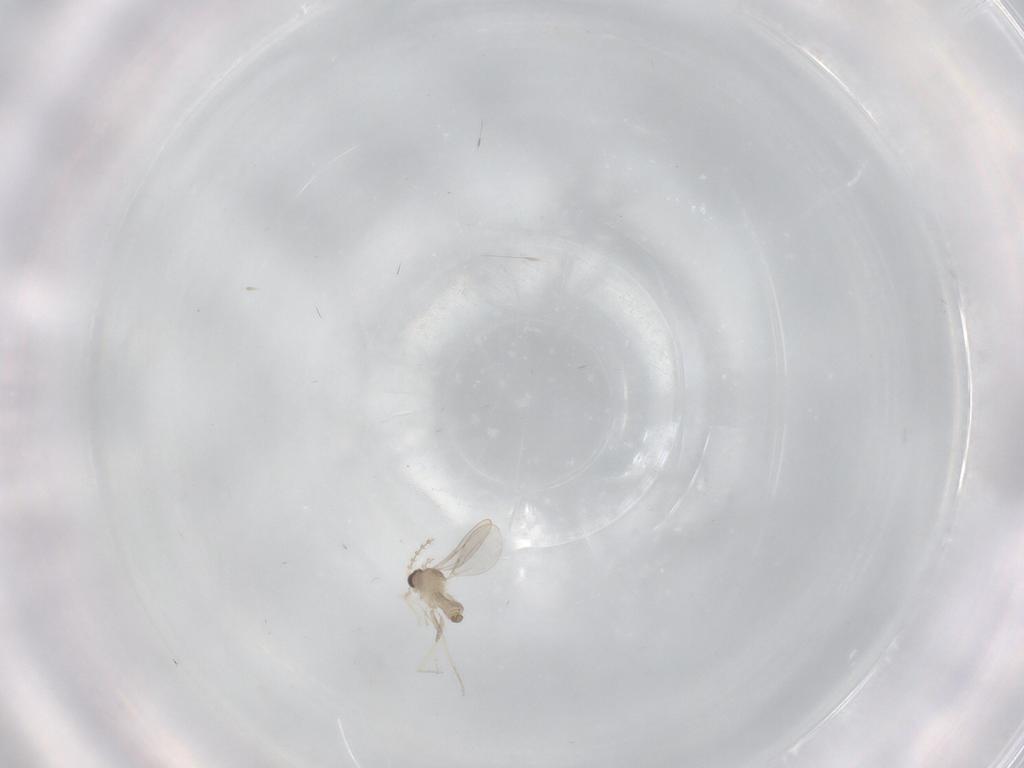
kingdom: Animalia
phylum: Arthropoda
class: Insecta
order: Diptera
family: Cecidomyiidae
